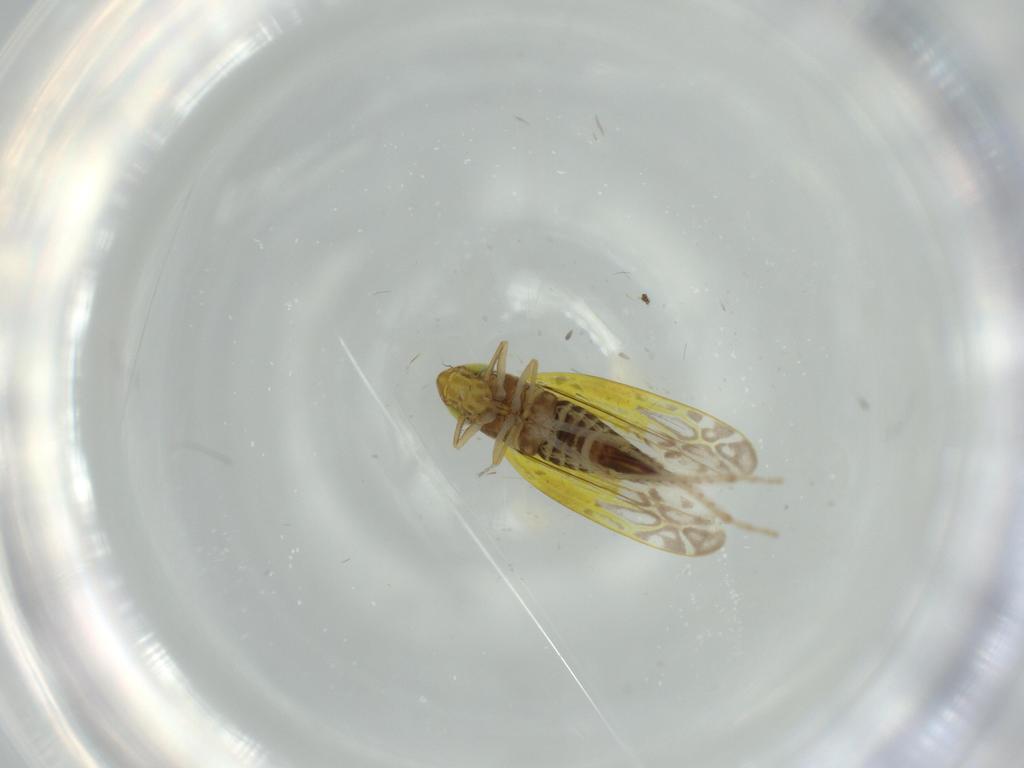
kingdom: Animalia
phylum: Arthropoda
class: Insecta
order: Hemiptera
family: Cicadellidae
